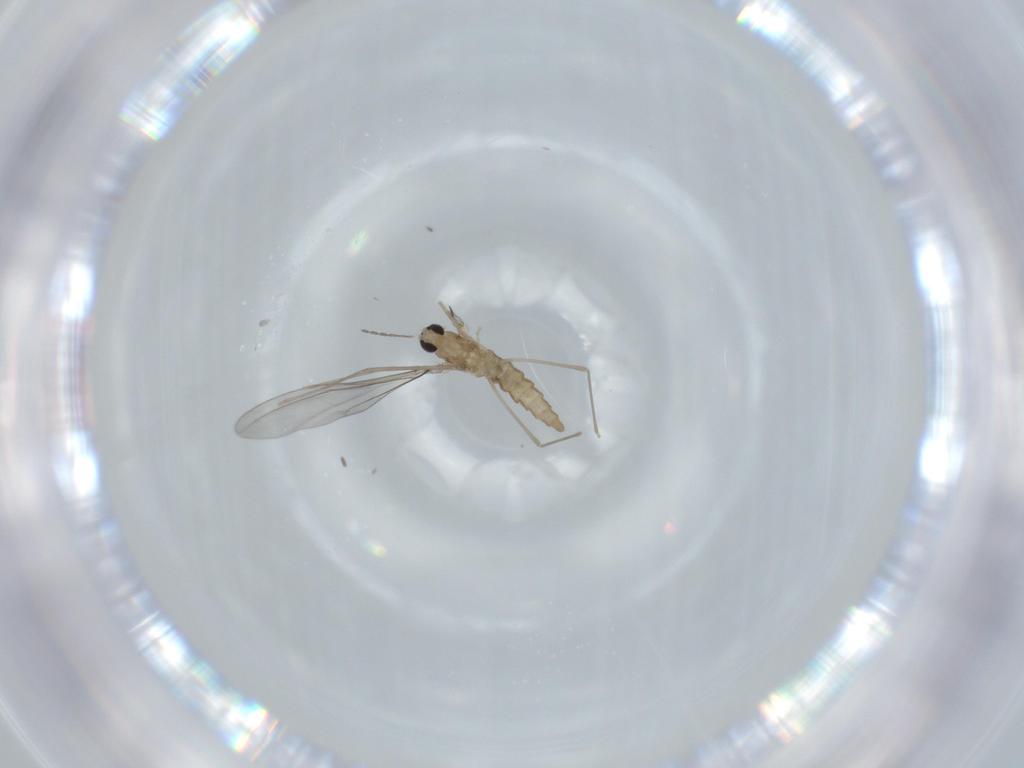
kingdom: Animalia
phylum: Arthropoda
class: Insecta
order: Diptera
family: Cecidomyiidae
